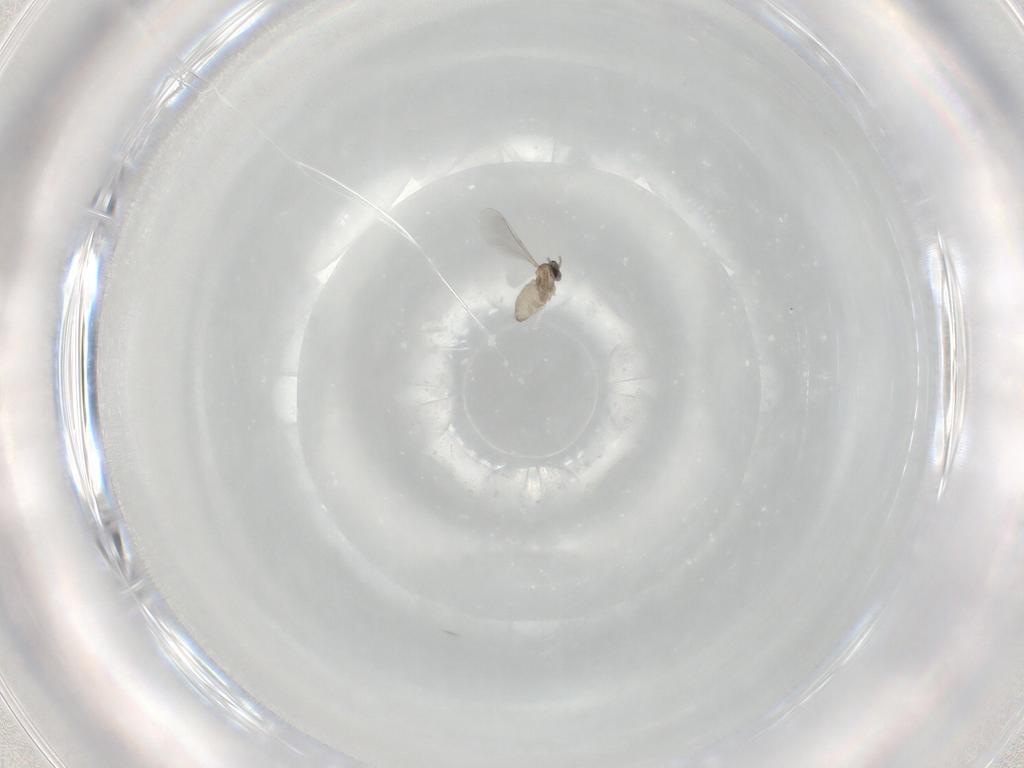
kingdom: Animalia
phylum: Arthropoda
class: Insecta
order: Diptera
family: Cecidomyiidae
